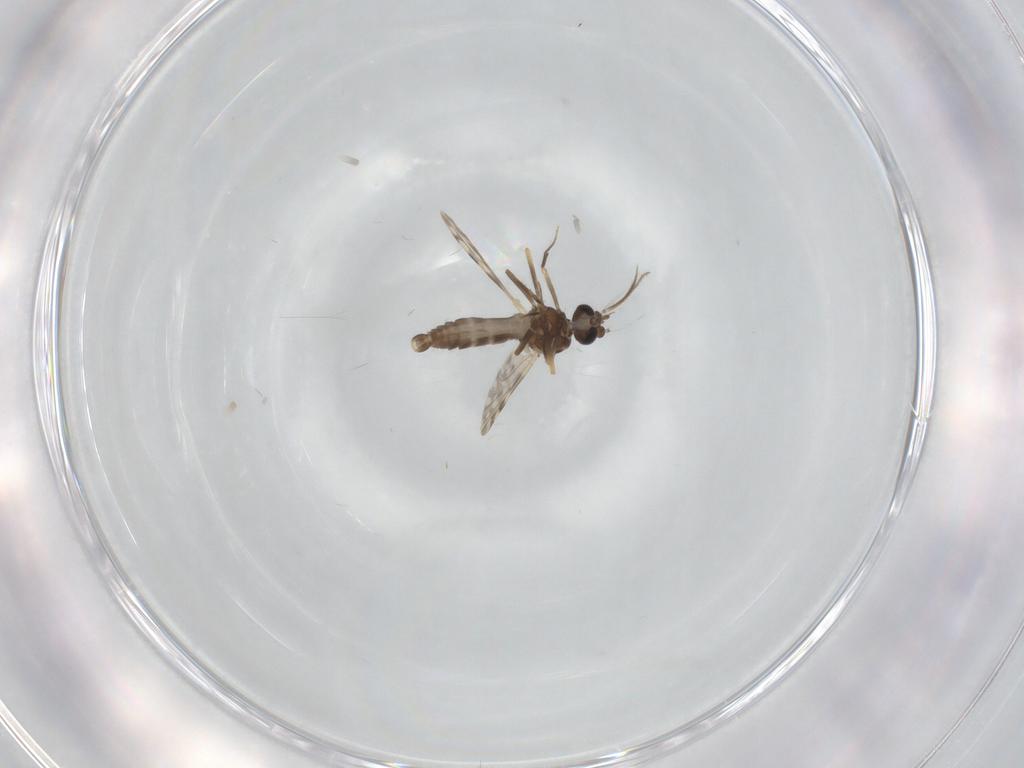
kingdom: Animalia
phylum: Arthropoda
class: Insecta
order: Diptera
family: Ceratopogonidae
